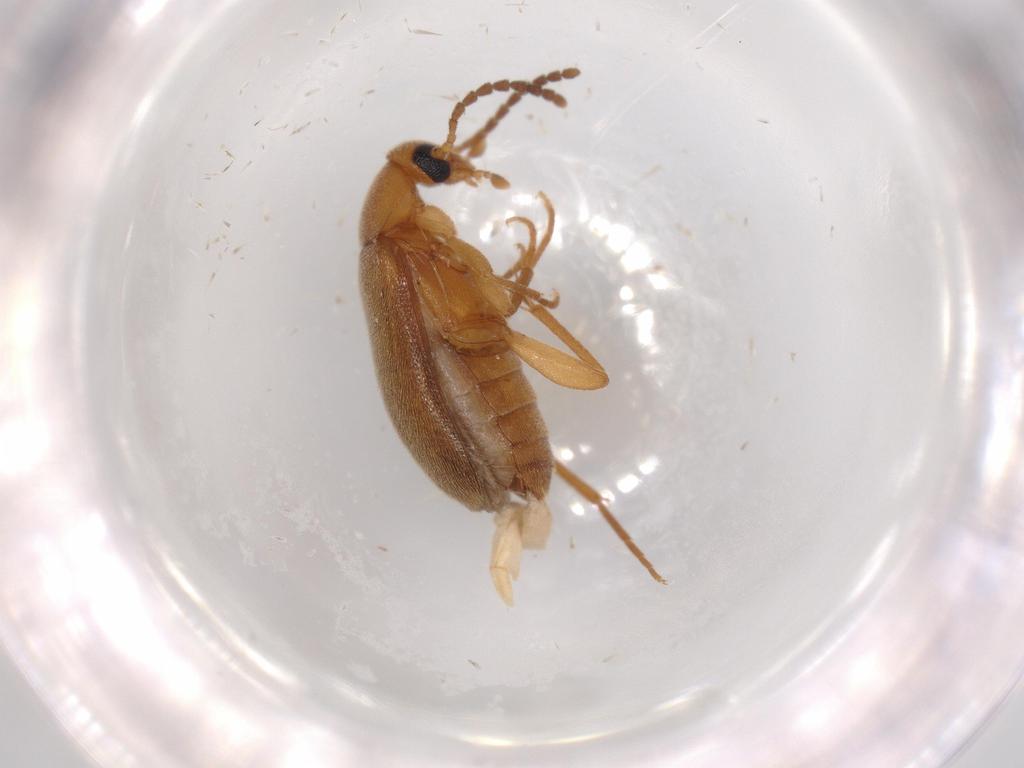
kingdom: Animalia
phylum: Arthropoda
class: Insecta
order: Coleoptera
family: Scraptiidae
